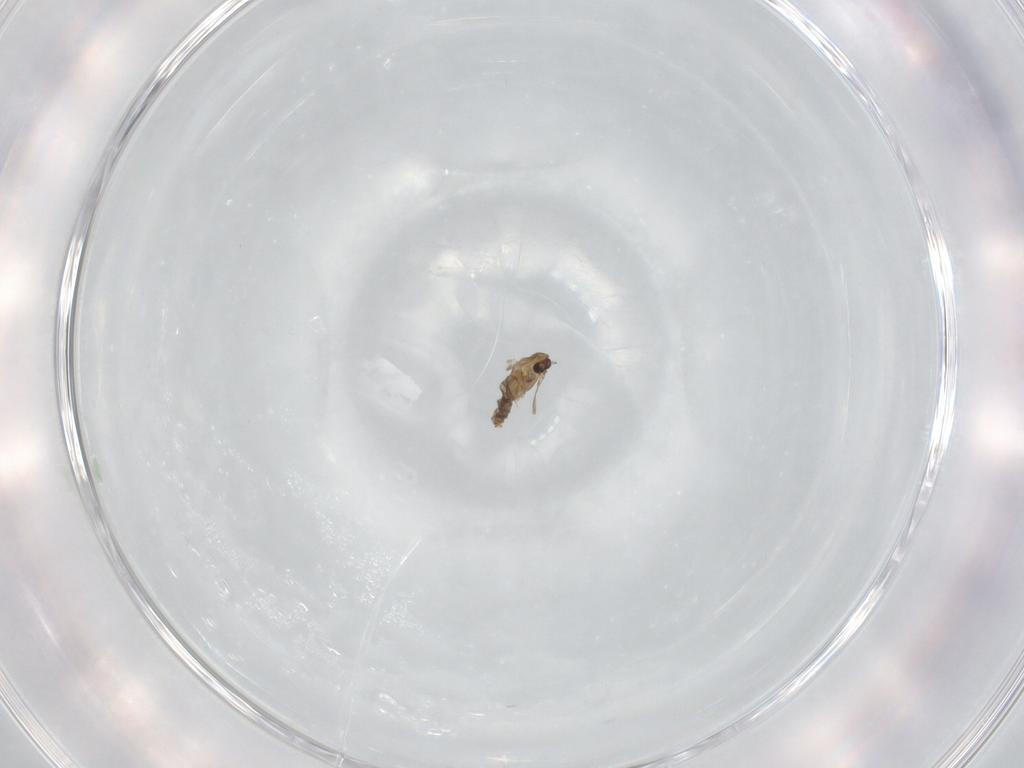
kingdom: Animalia
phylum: Arthropoda
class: Insecta
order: Diptera
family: Chironomidae
